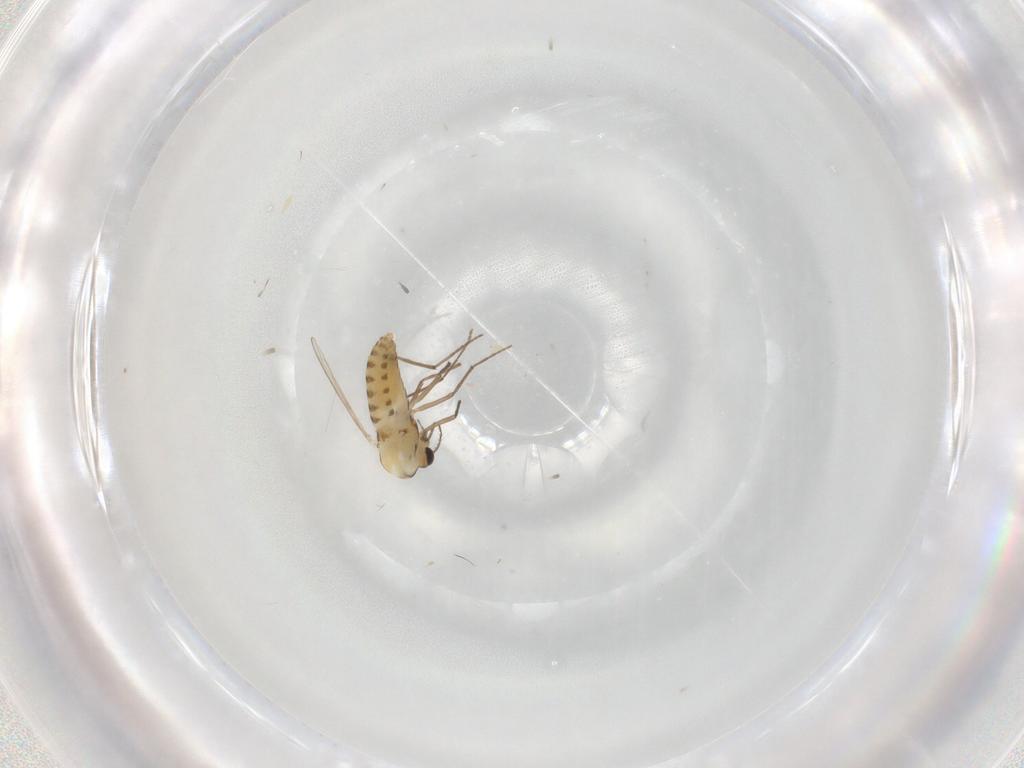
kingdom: Animalia
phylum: Arthropoda
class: Insecta
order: Diptera
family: Chironomidae
